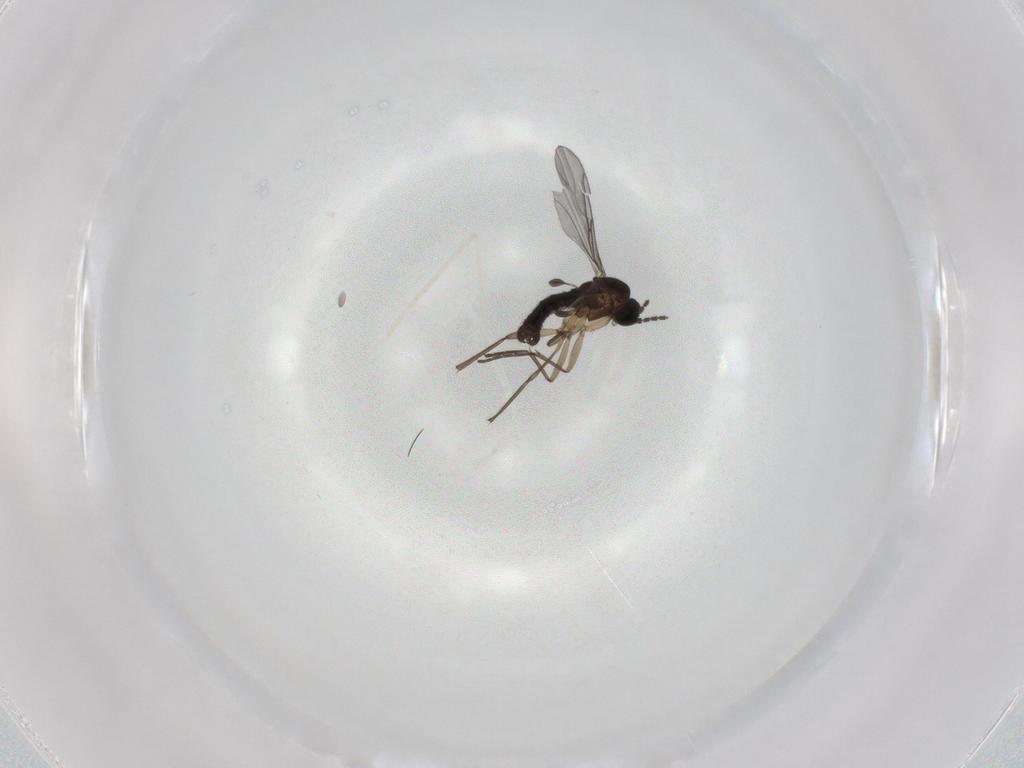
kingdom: Animalia
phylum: Arthropoda
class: Insecta
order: Diptera
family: Sciaridae
